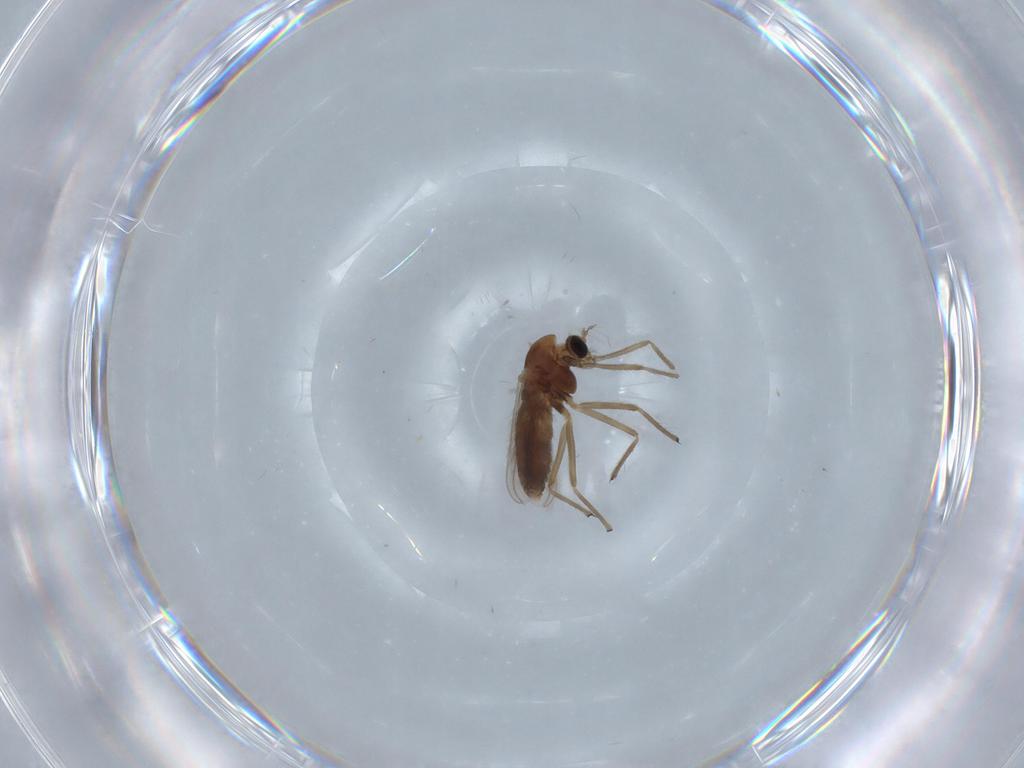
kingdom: Animalia
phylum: Arthropoda
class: Insecta
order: Diptera
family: Chironomidae
